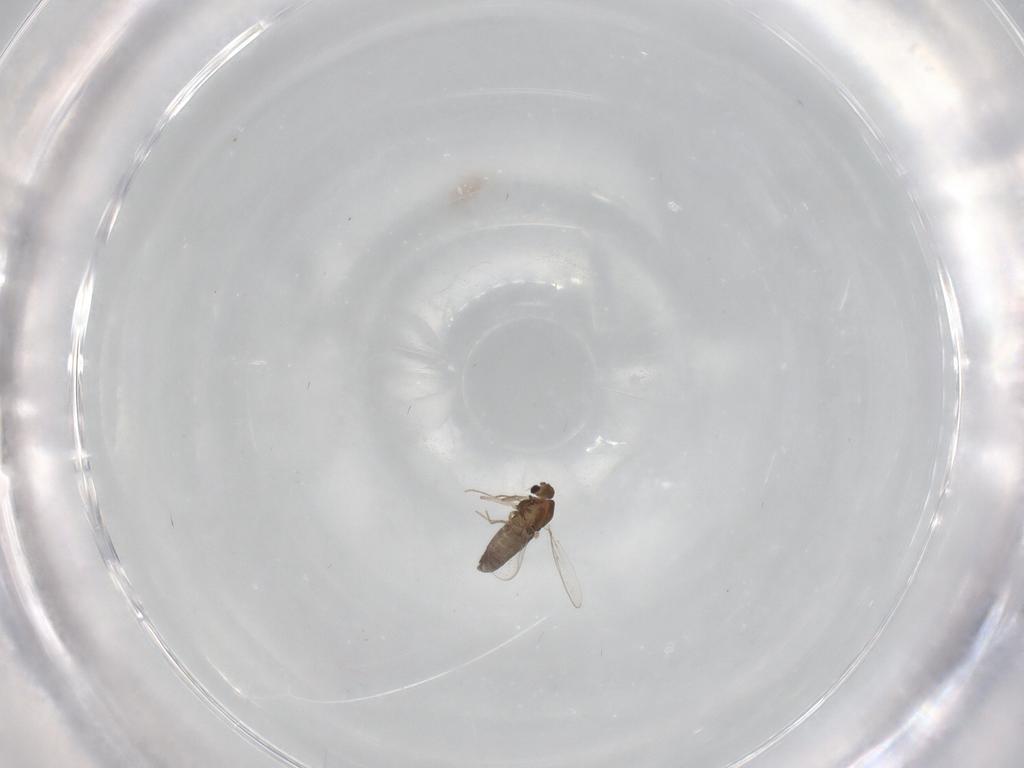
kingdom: Animalia
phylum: Arthropoda
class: Insecta
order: Diptera
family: Chironomidae
